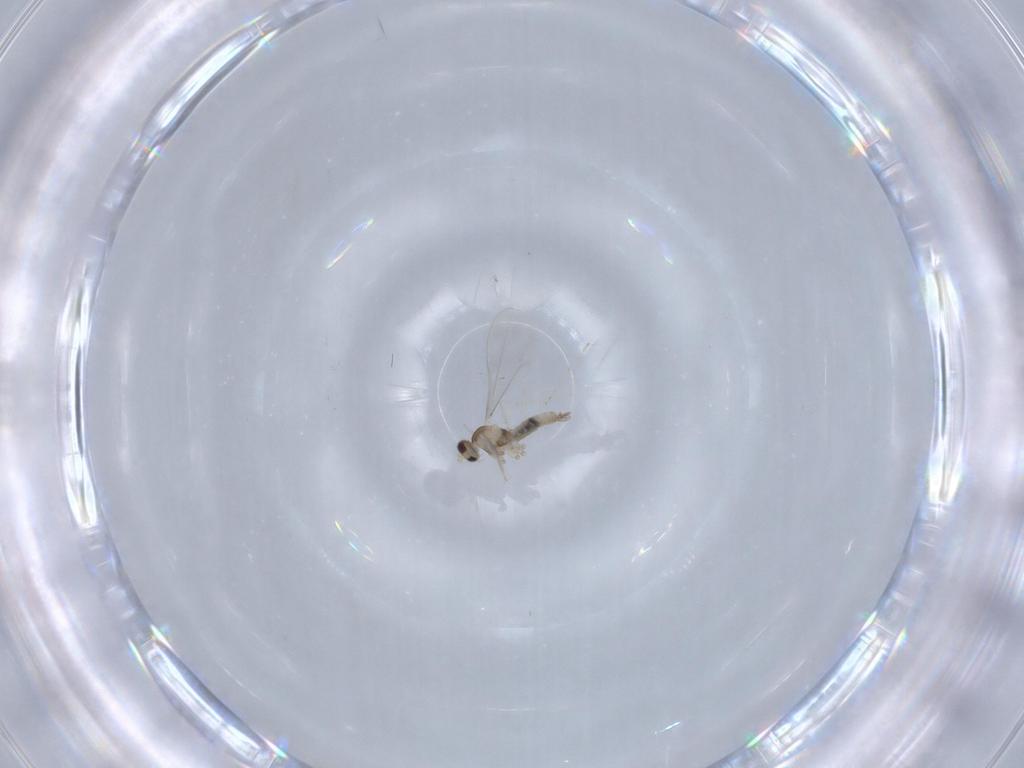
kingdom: Animalia
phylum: Arthropoda
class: Insecta
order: Diptera
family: Cecidomyiidae
